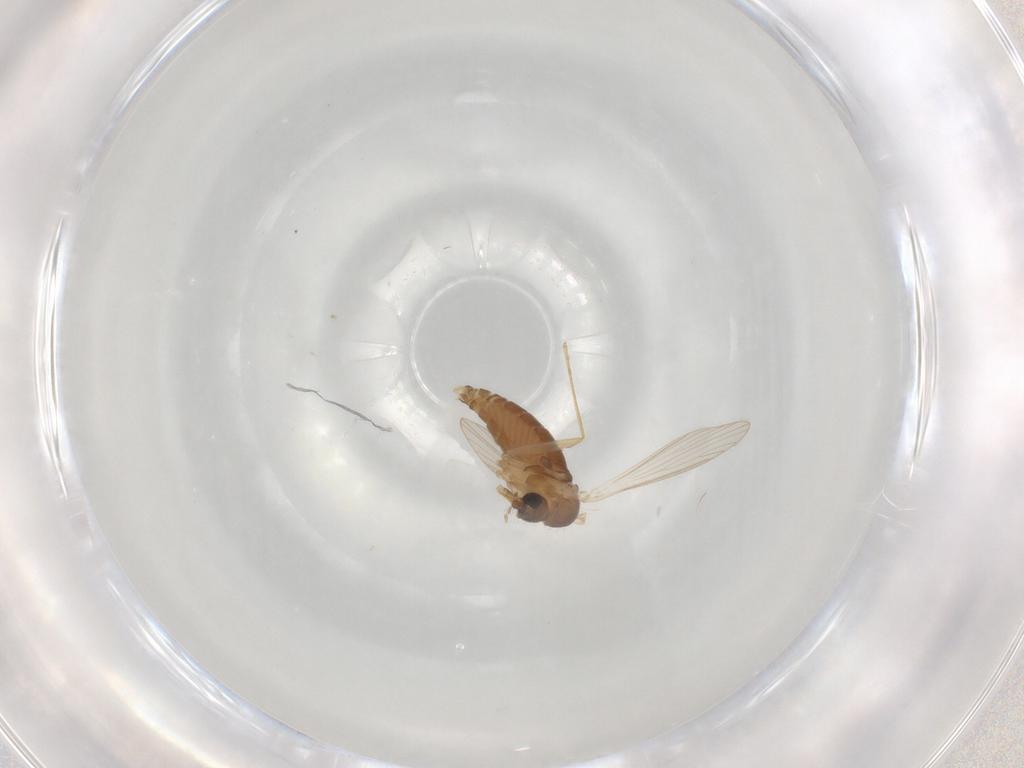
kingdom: Animalia
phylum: Arthropoda
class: Insecta
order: Diptera
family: Psychodidae
